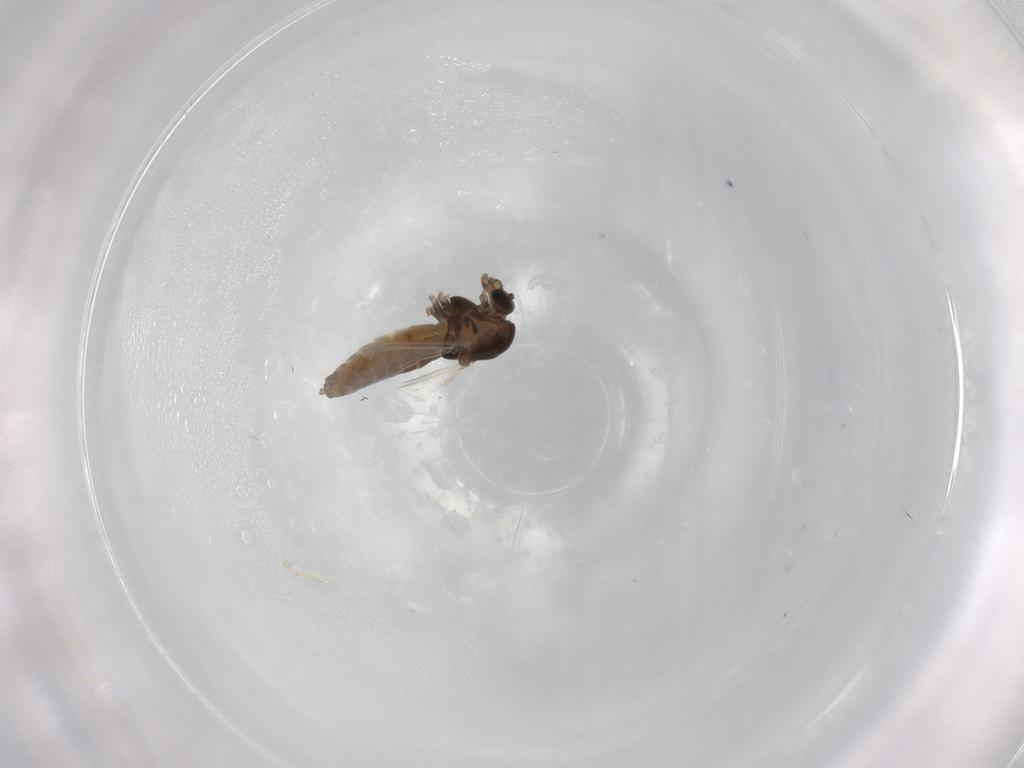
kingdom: Animalia
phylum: Arthropoda
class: Insecta
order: Diptera
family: Chironomidae
